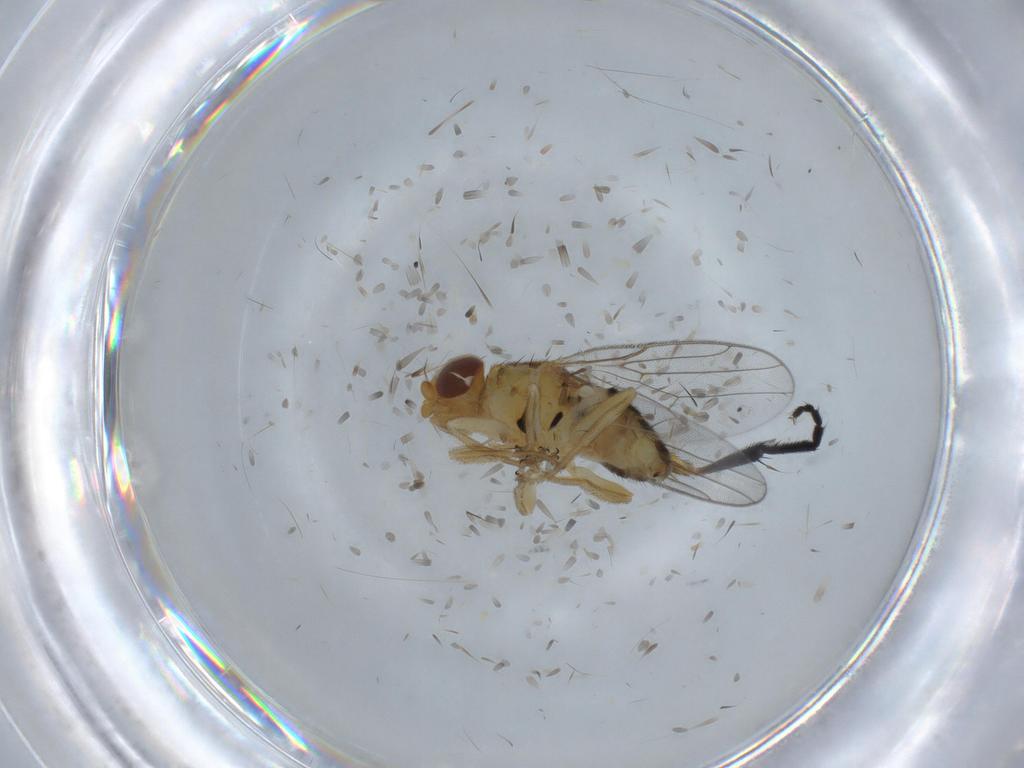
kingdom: Animalia
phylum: Arthropoda
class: Insecta
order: Diptera
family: Chloropidae
